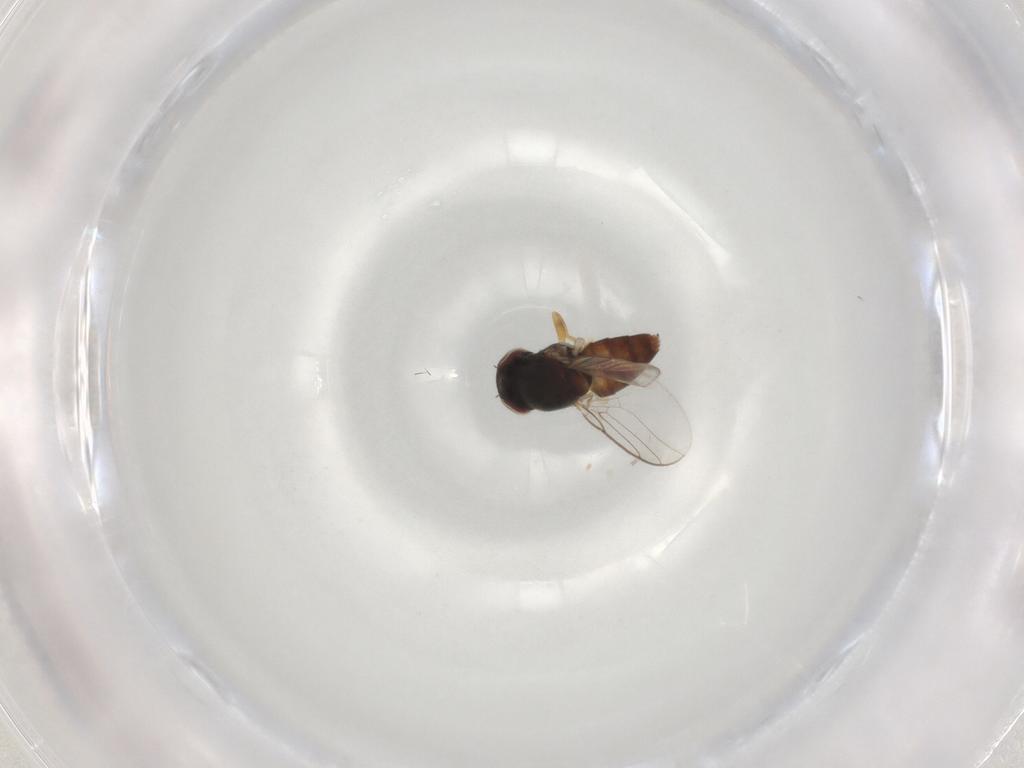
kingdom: Animalia
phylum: Arthropoda
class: Insecta
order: Diptera
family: Chloropidae
